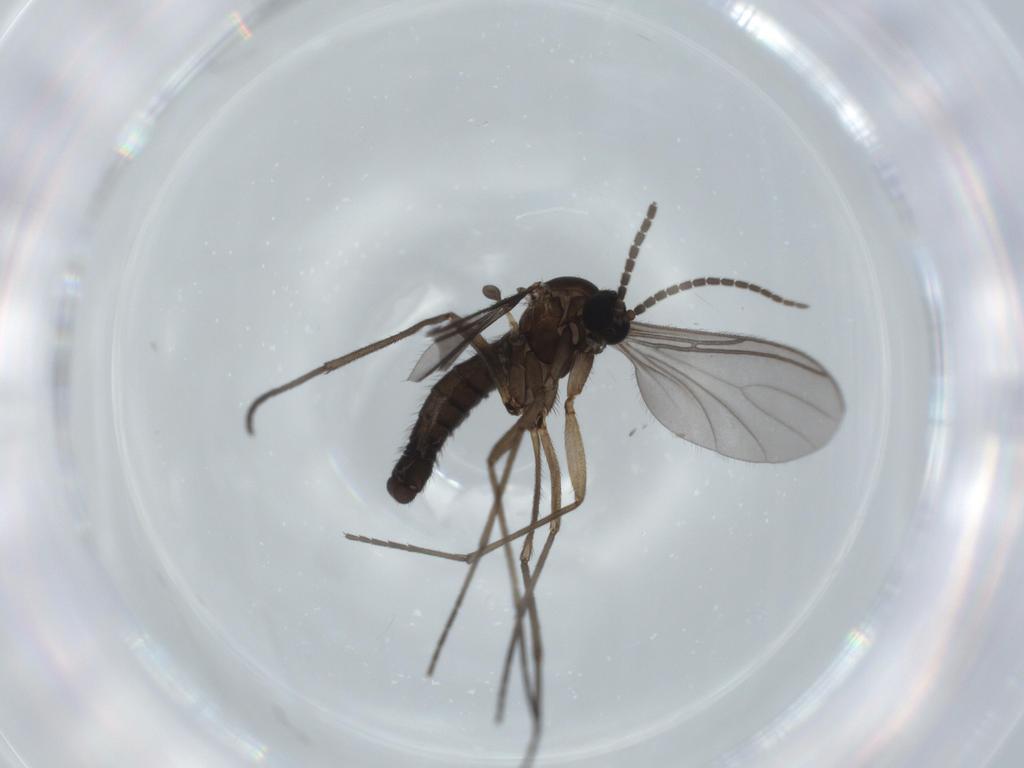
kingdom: Animalia
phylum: Arthropoda
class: Insecta
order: Diptera
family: Sciaridae
